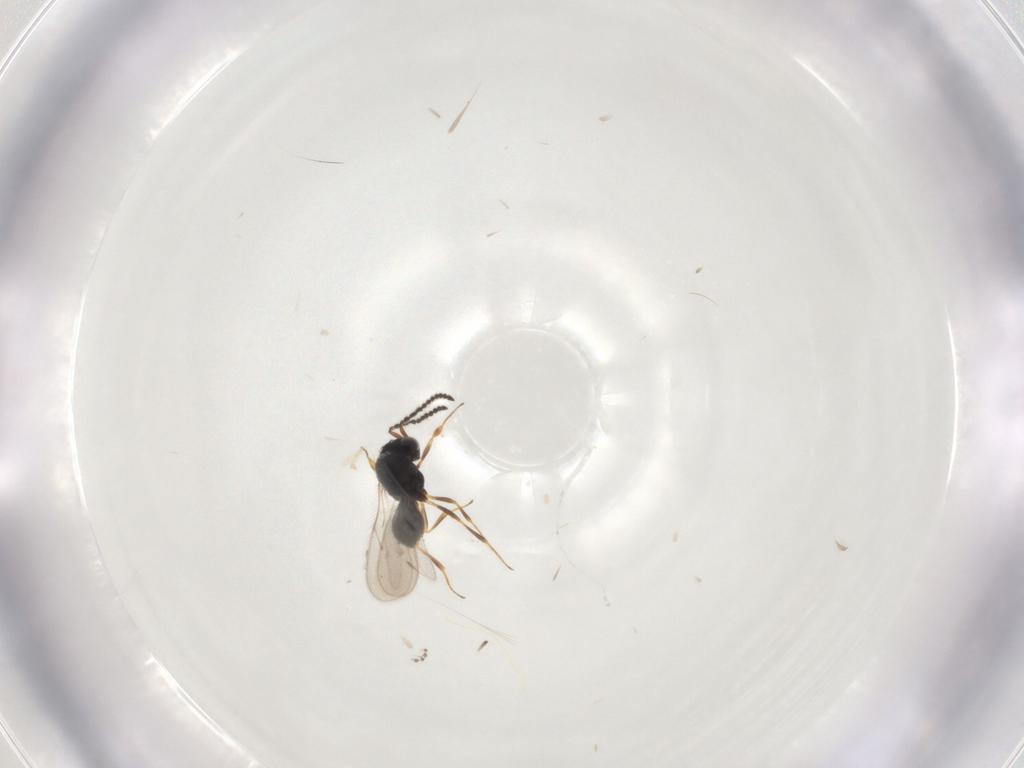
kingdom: Animalia
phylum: Arthropoda
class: Insecta
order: Hymenoptera
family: Scelionidae
